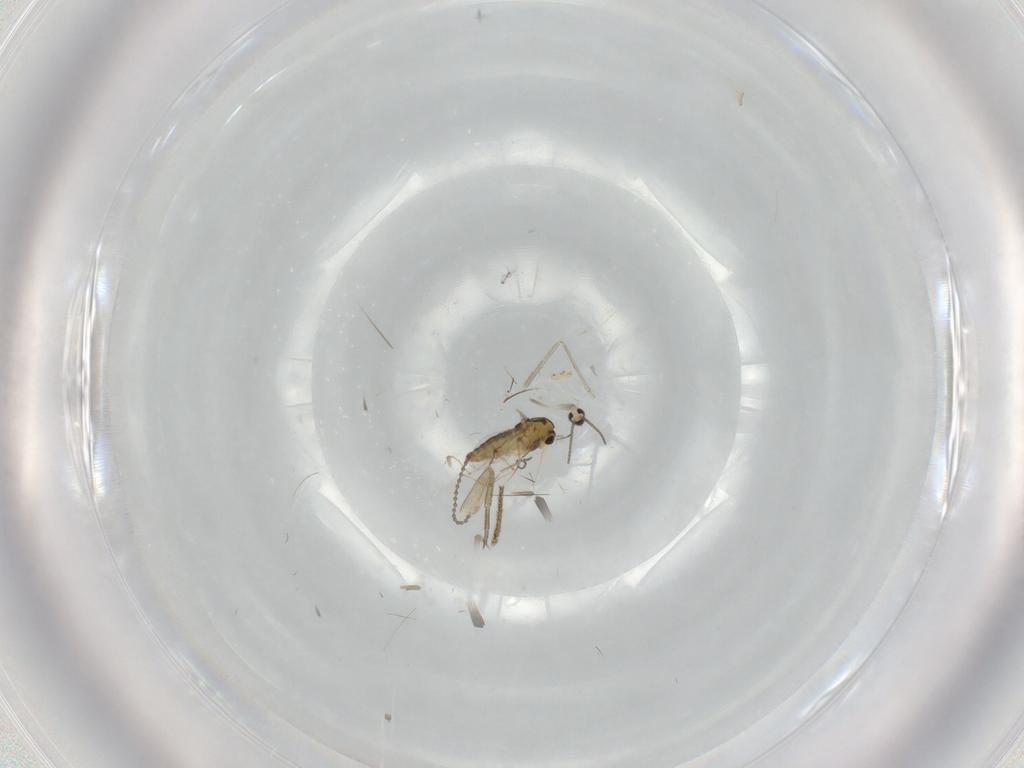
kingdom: Animalia
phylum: Arthropoda
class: Insecta
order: Diptera
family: Chironomidae
